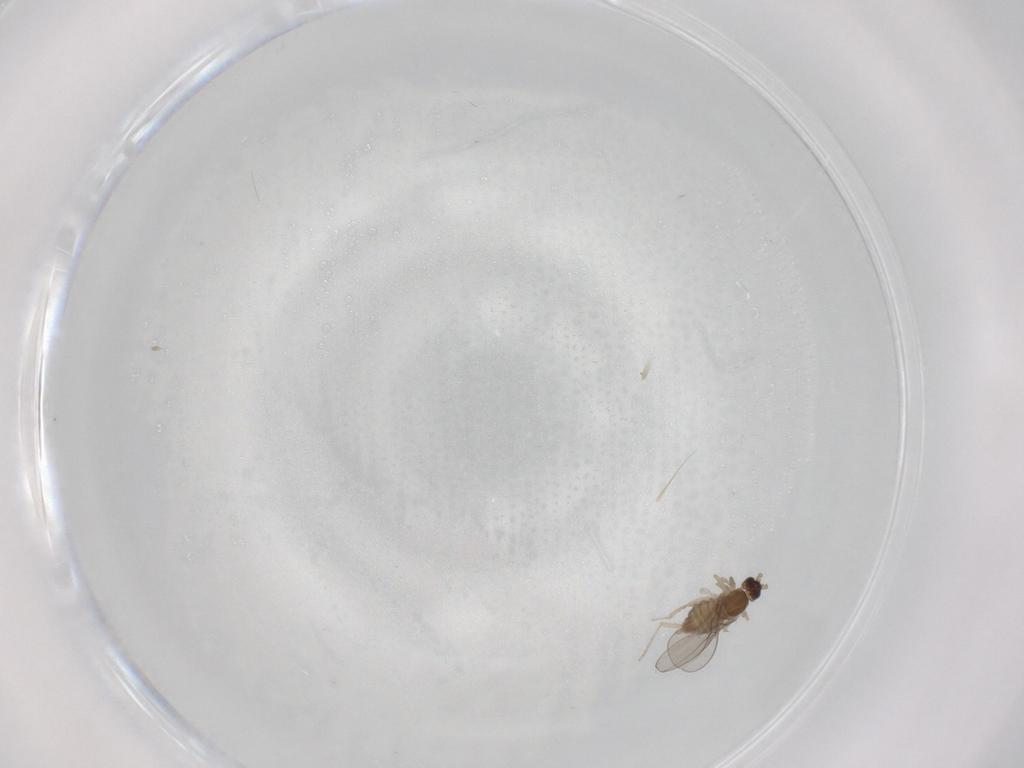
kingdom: Animalia
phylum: Arthropoda
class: Insecta
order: Diptera
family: Cecidomyiidae
